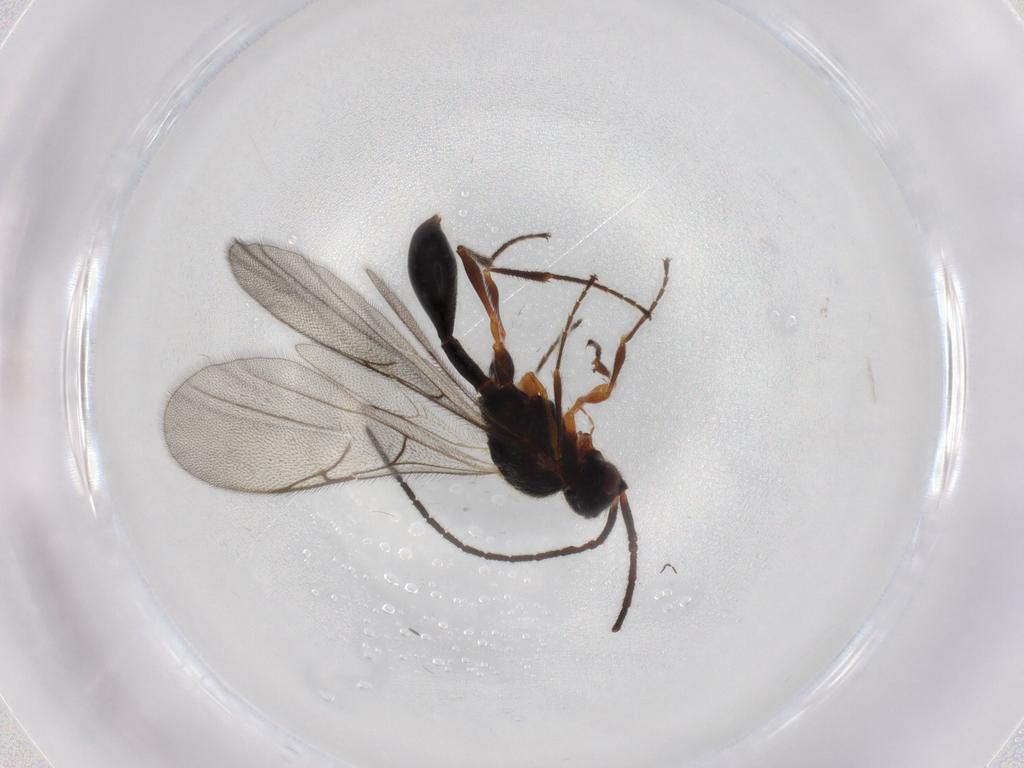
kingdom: Animalia
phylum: Arthropoda
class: Insecta
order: Hymenoptera
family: Diapriidae
